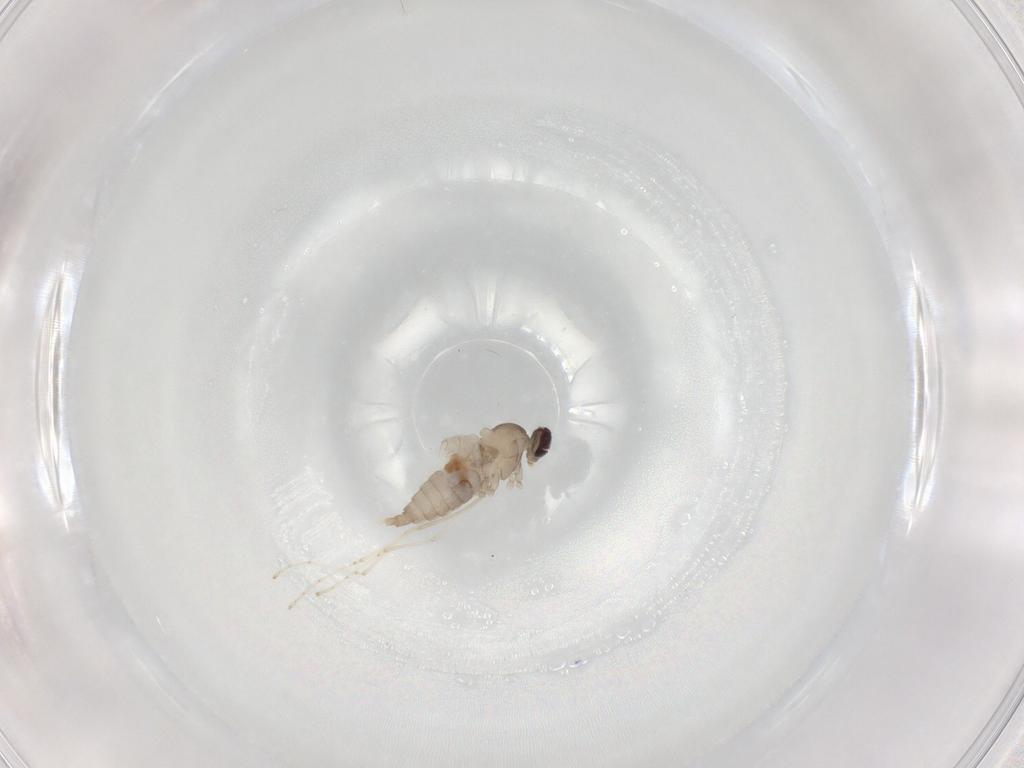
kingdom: Animalia
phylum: Arthropoda
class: Insecta
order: Diptera
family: Cecidomyiidae
